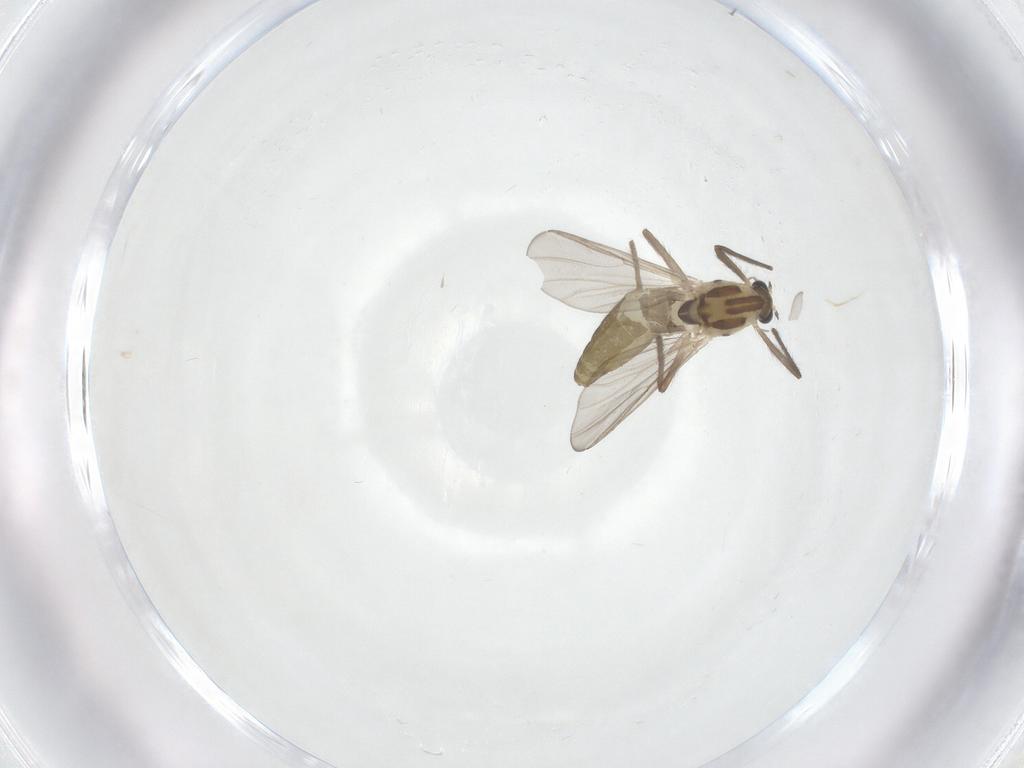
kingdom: Animalia
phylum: Arthropoda
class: Insecta
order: Diptera
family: Chironomidae
